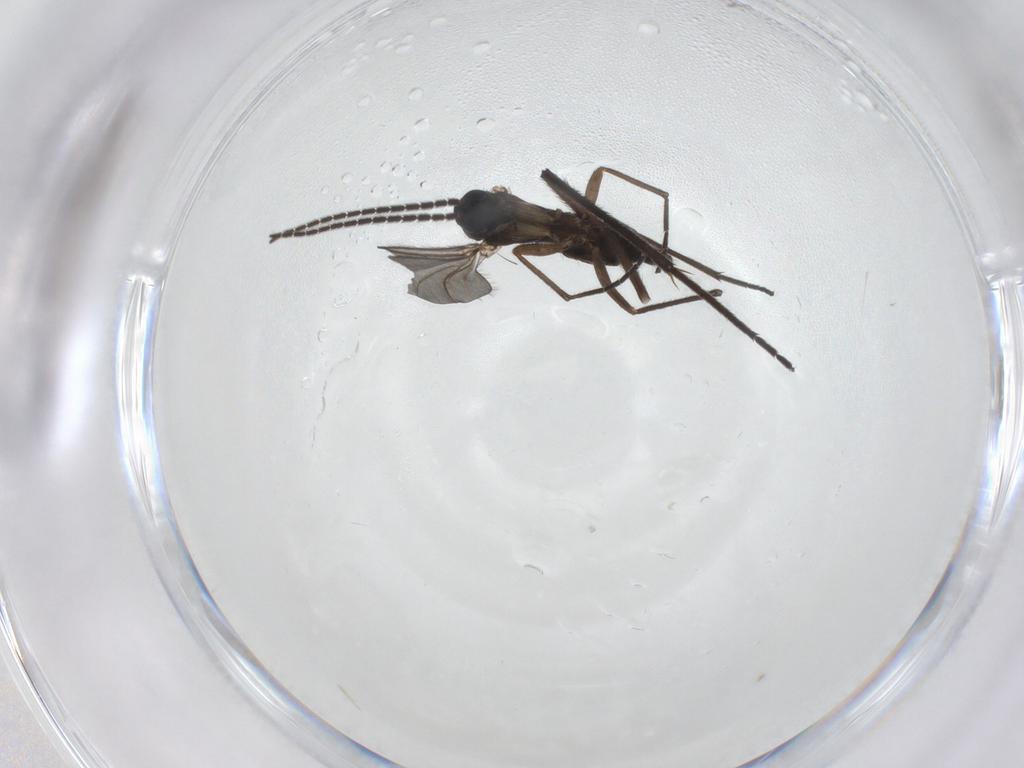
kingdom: Animalia
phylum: Arthropoda
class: Insecta
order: Diptera
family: Sciaridae
